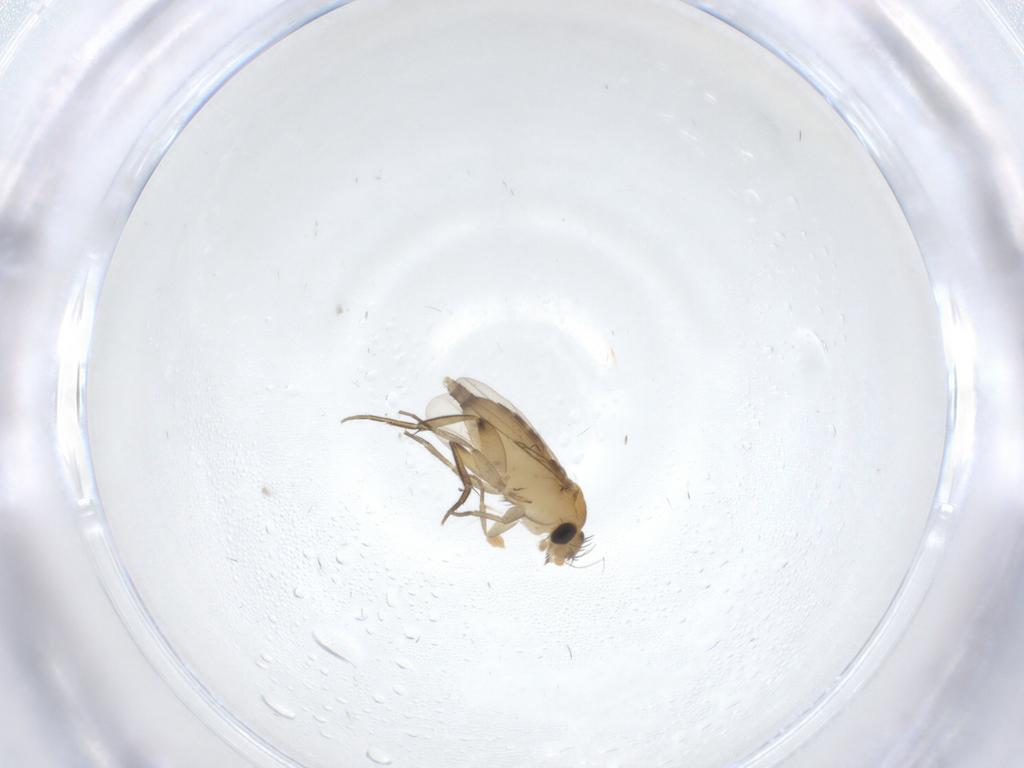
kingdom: Animalia
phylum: Arthropoda
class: Insecta
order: Diptera
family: Phoridae
